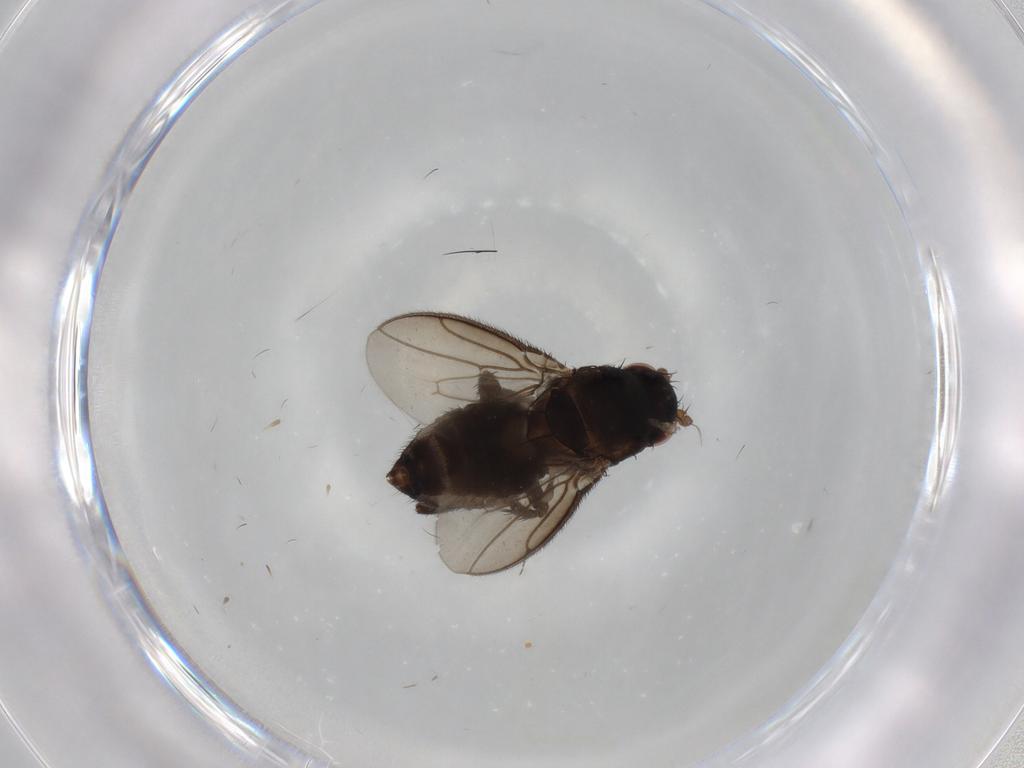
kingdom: Animalia
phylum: Arthropoda
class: Insecta
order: Diptera
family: Cecidomyiidae
